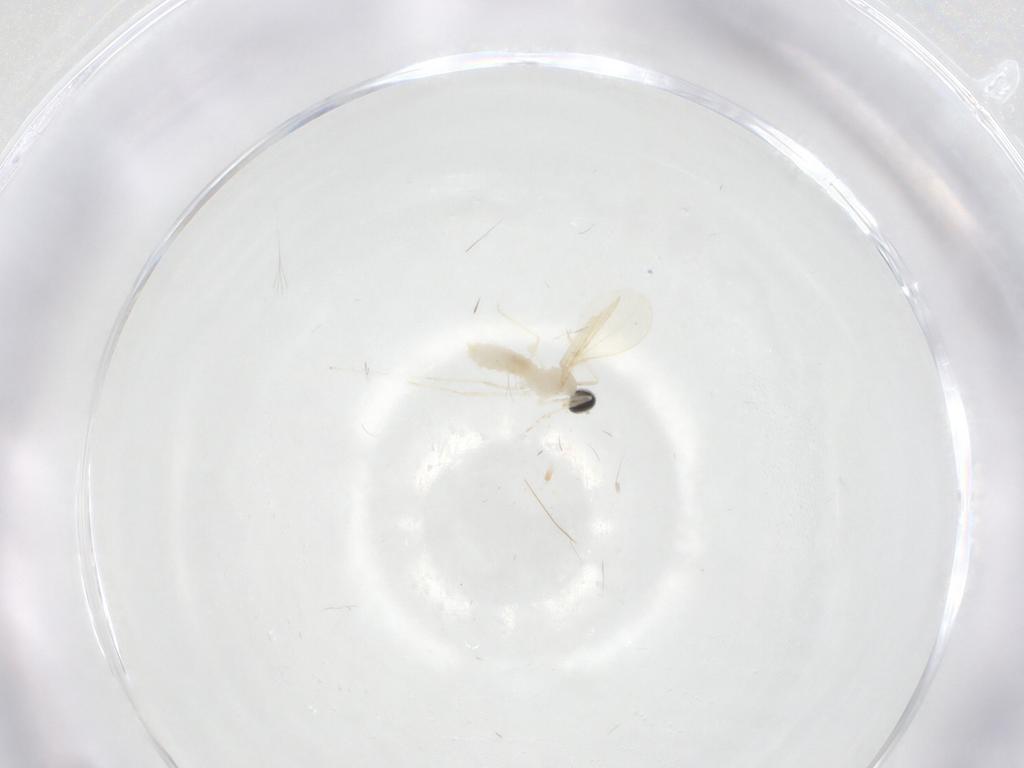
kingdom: Animalia
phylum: Arthropoda
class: Insecta
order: Diptera
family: Cecidomyiidae
